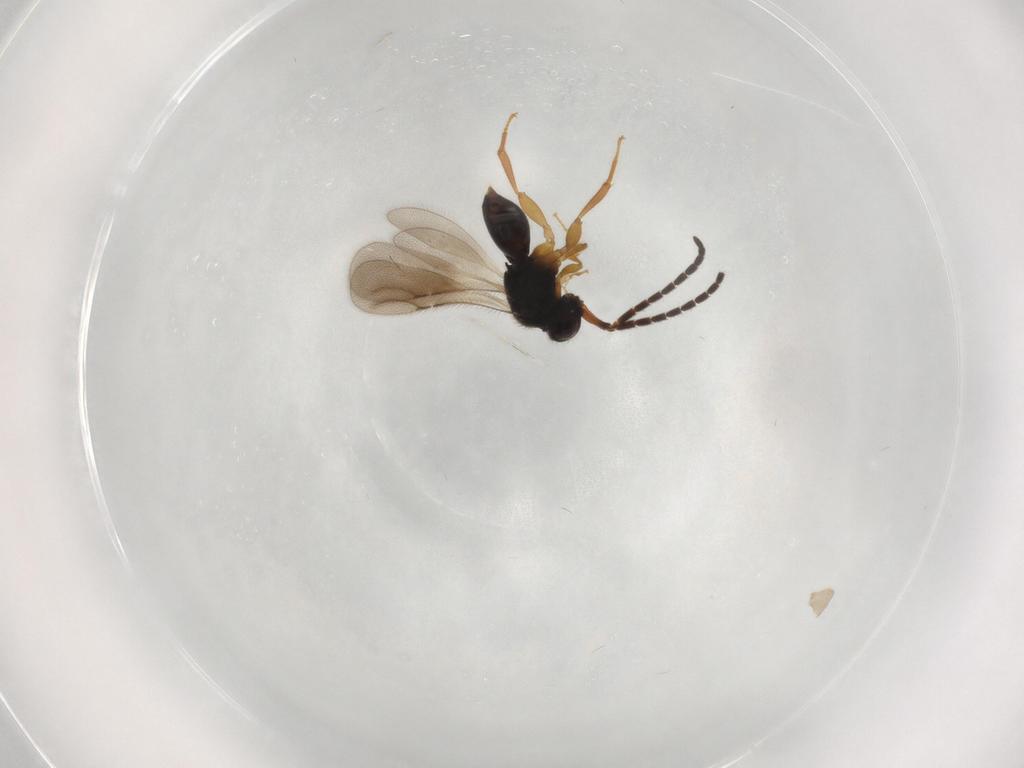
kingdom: Animalia
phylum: Arthropoda
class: Insecta
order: Hymenoptera
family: Ceraphronidae
